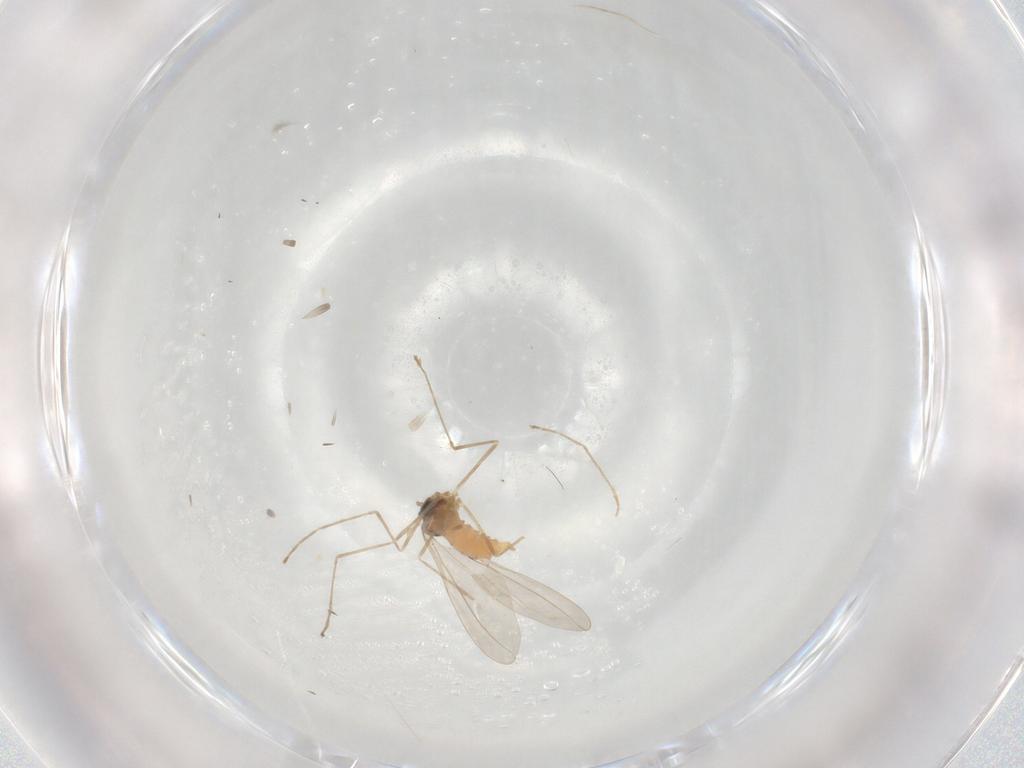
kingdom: Animalia
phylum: Arthropoda
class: Insecta
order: Diptera
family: Cecidomyiidae
